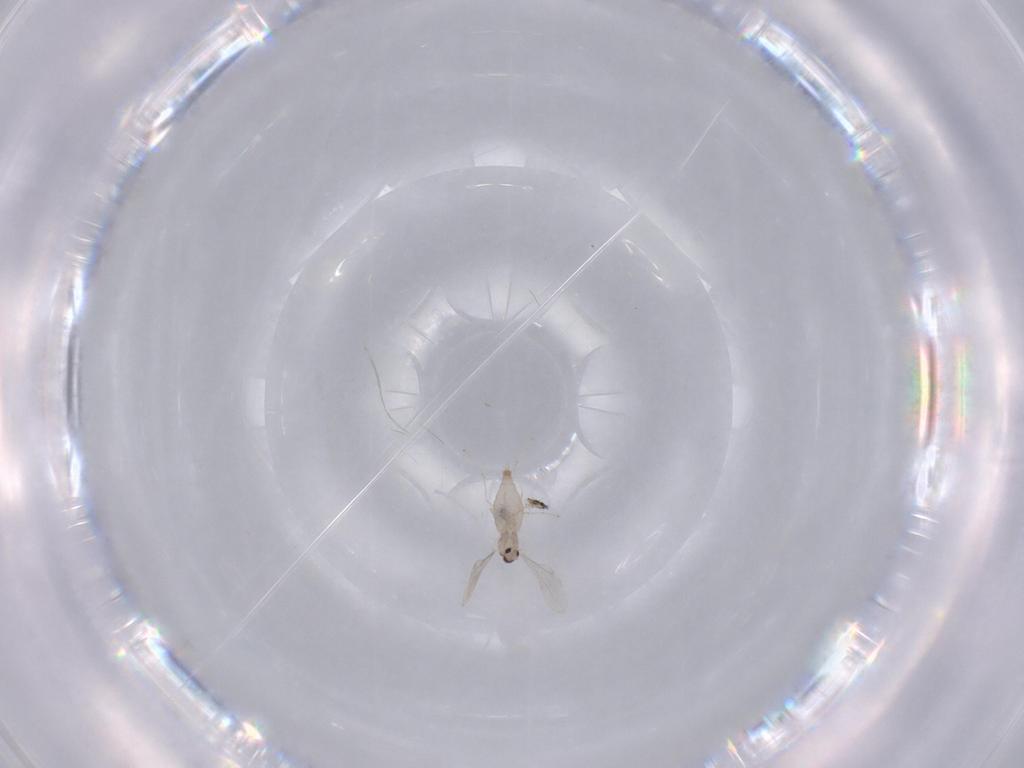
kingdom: Animalia
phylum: Arthropoda
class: Insecta
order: Diptera
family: Cecidomyiidae
